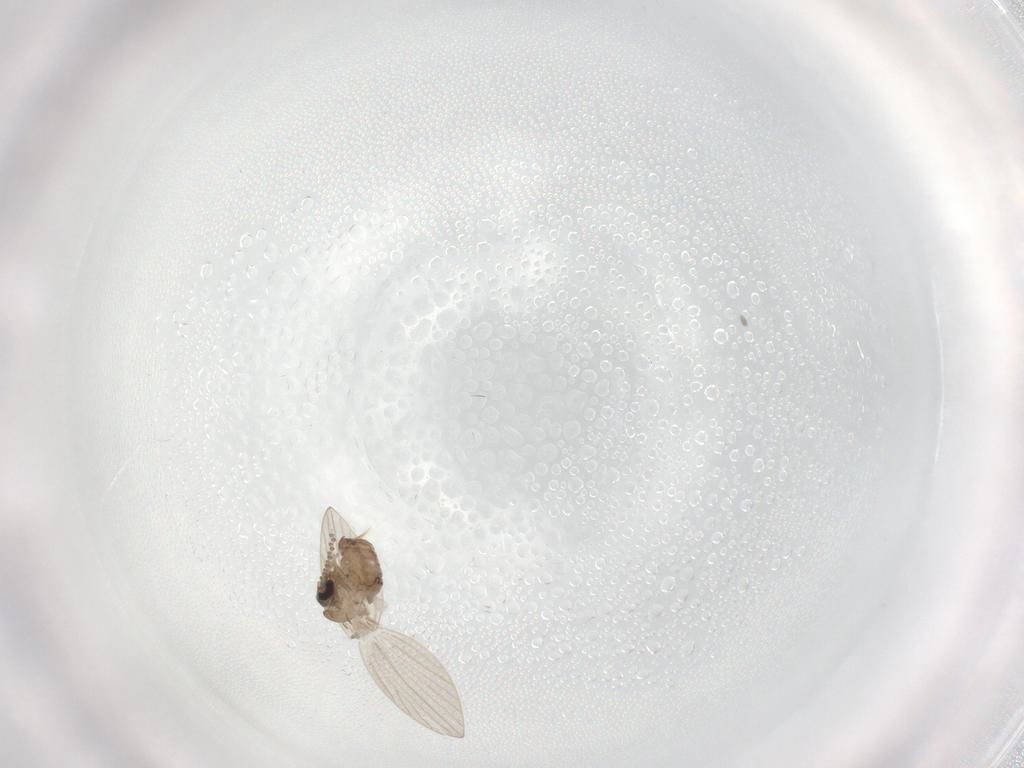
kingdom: Animalia
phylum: Arthropoda
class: Insecta
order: Diptera
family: Psychodidae
